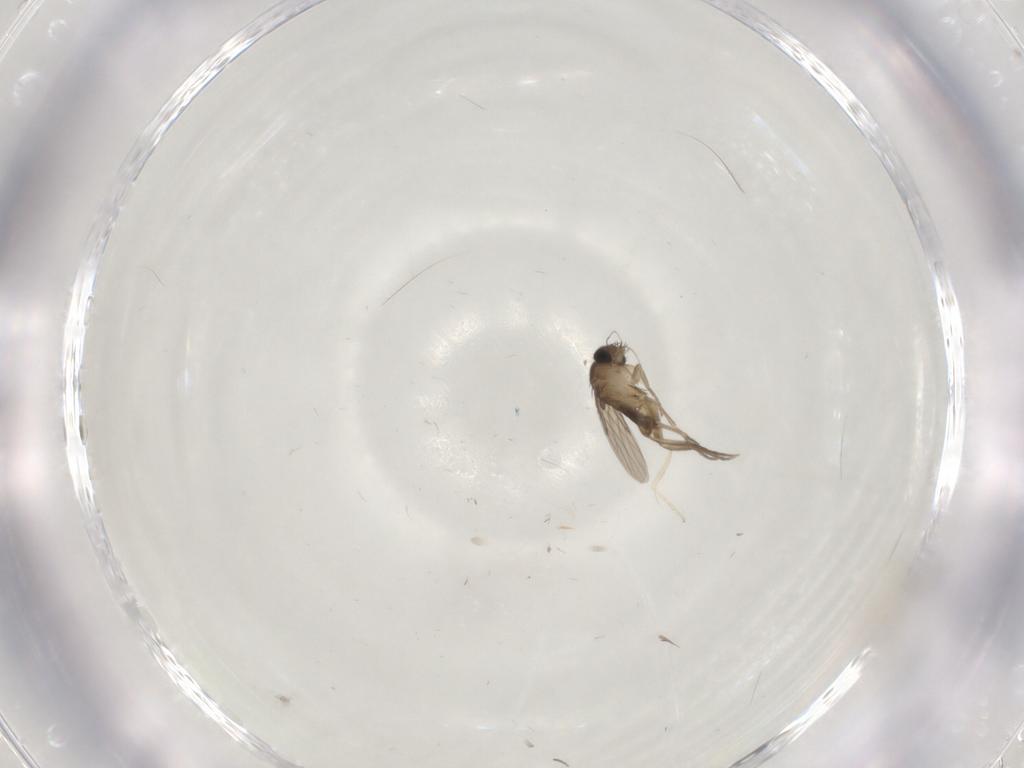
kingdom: Animalia
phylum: Arthropoda
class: Insecta
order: Diptera
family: Cecidomyiidae
